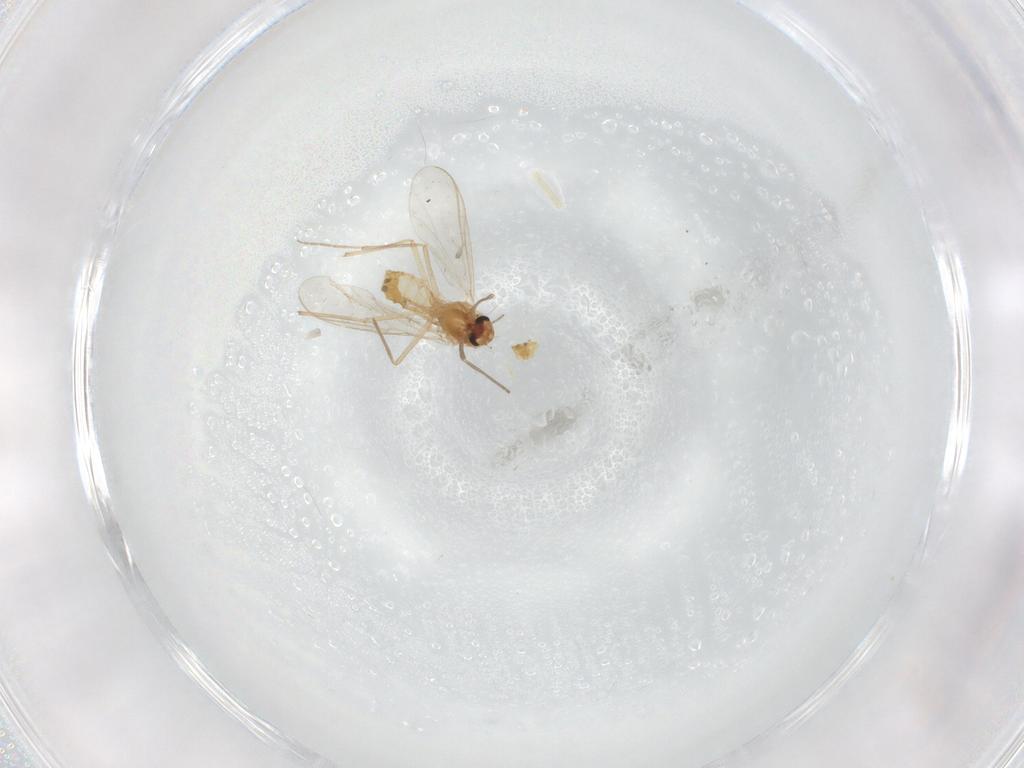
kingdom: Animalia
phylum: Arthropoda
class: Insecta
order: Diptera
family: Chironomidae
